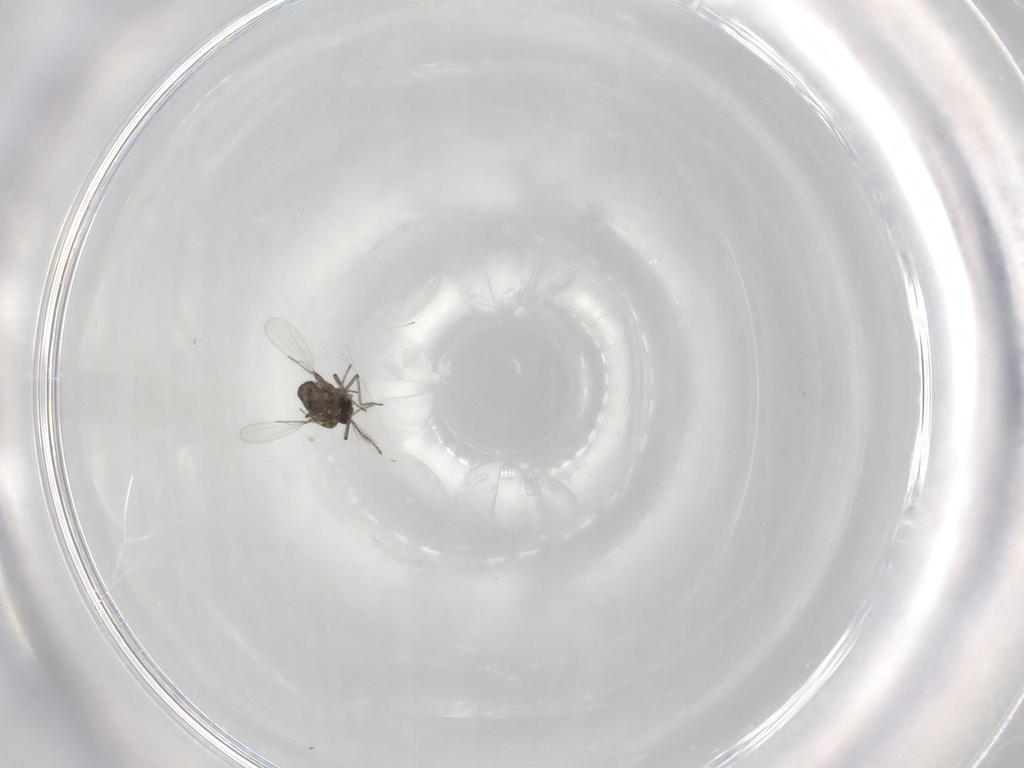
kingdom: Animalia
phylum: Arthropoda
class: Insecta
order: Diptera
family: Ceratopogonidae
